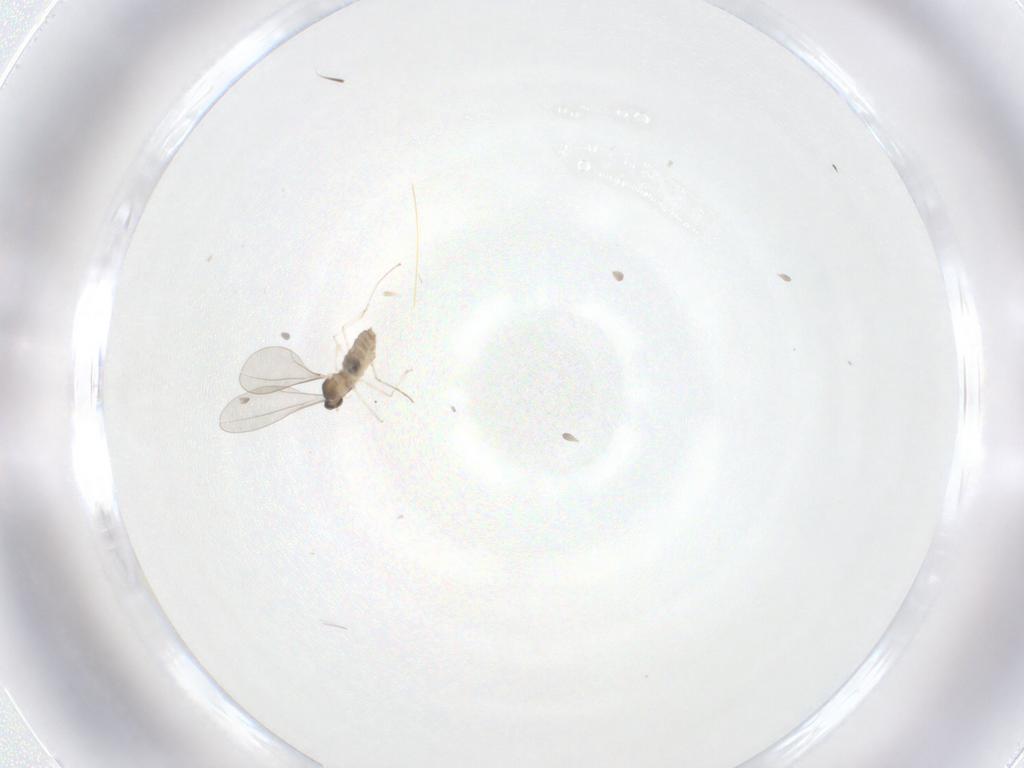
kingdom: Animalia
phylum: Arthropoda
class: Insecta
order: Diptera
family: Cecidomyiidae
